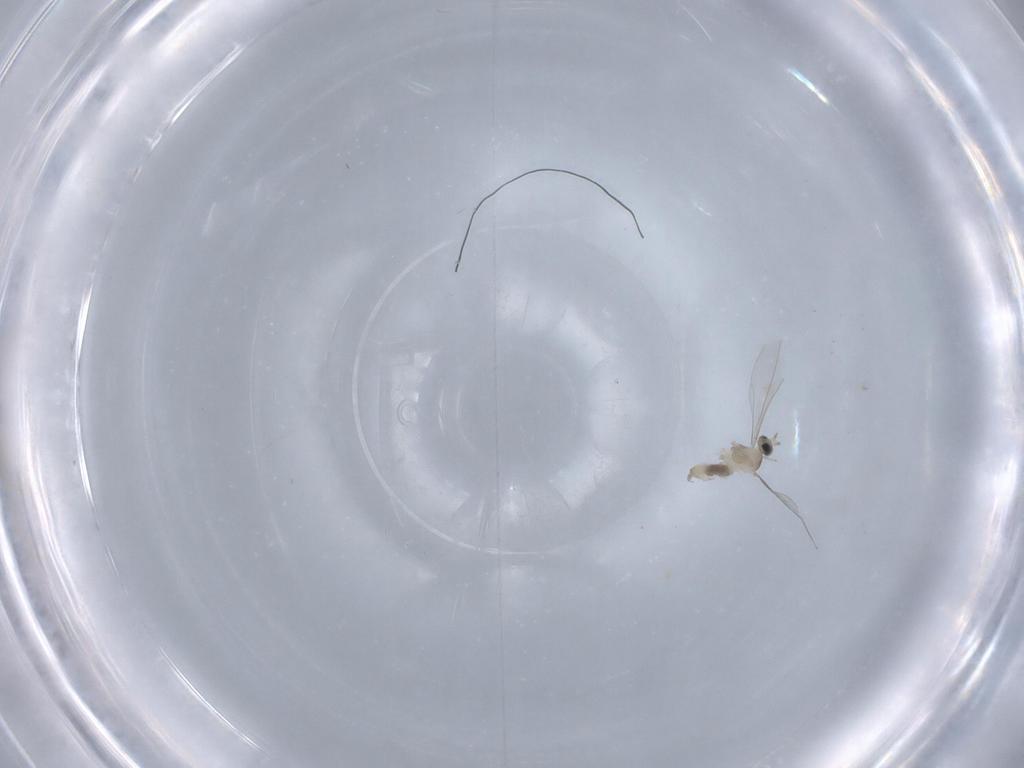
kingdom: Animalia
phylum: Arthropoda
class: Insecta
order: Diptera
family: Cecidomyiidae
